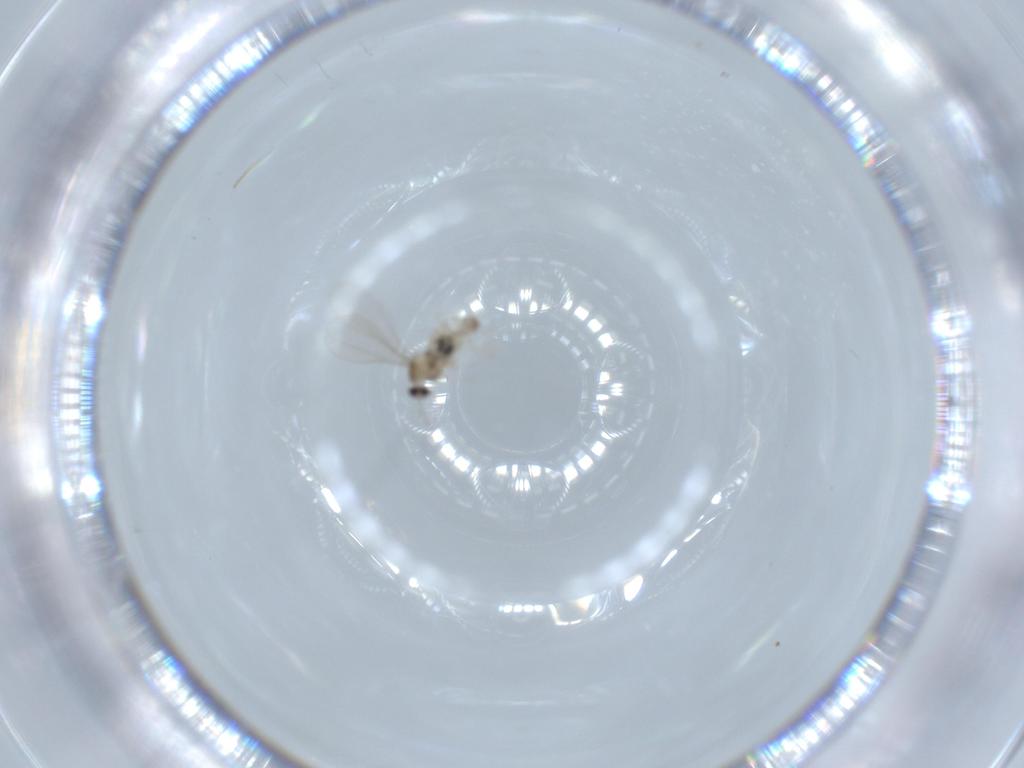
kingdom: Animalia
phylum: Arthropoda
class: Insecta
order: Diptera
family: Cecidomyiidae
